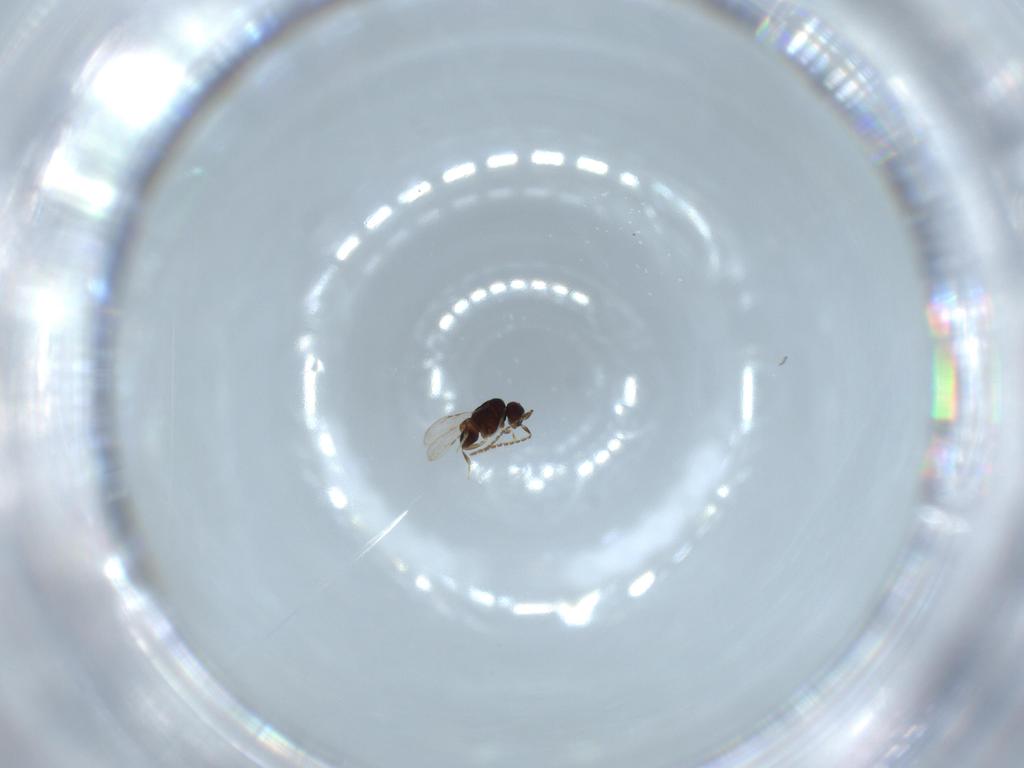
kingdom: Animalia
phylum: Arthropoda
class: Insecta
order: Hymenoptera
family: Ceraphronidae
